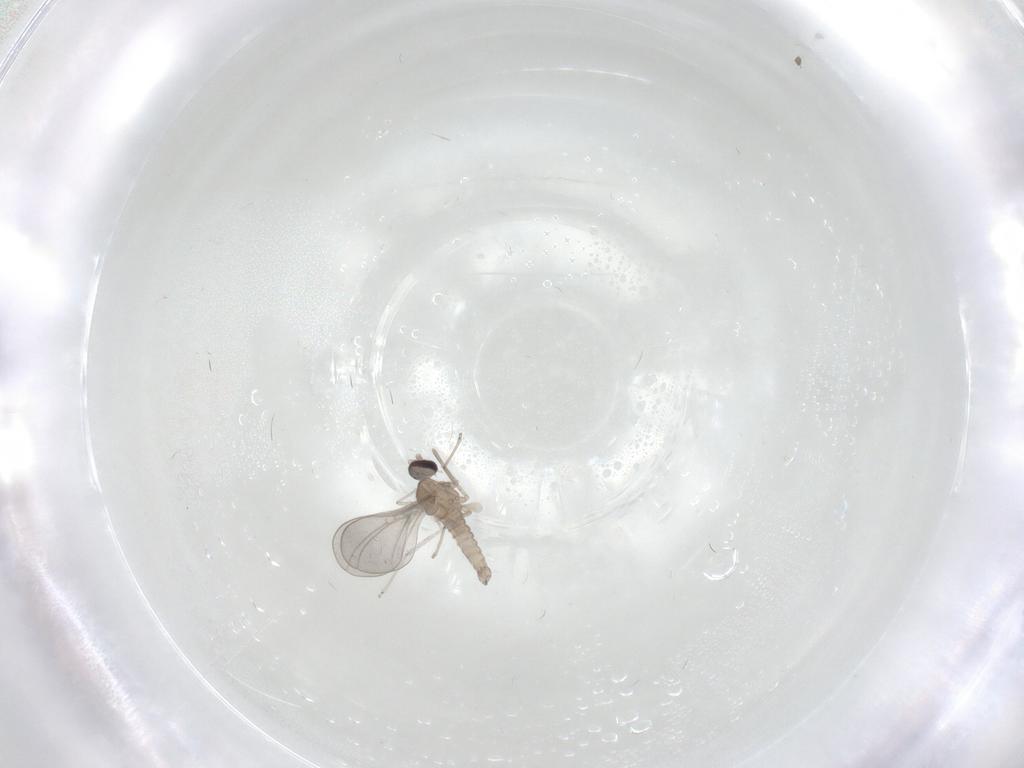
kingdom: Animalia
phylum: Arthropoda
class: Insecta
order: Diptera
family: Cecidomyiidae
